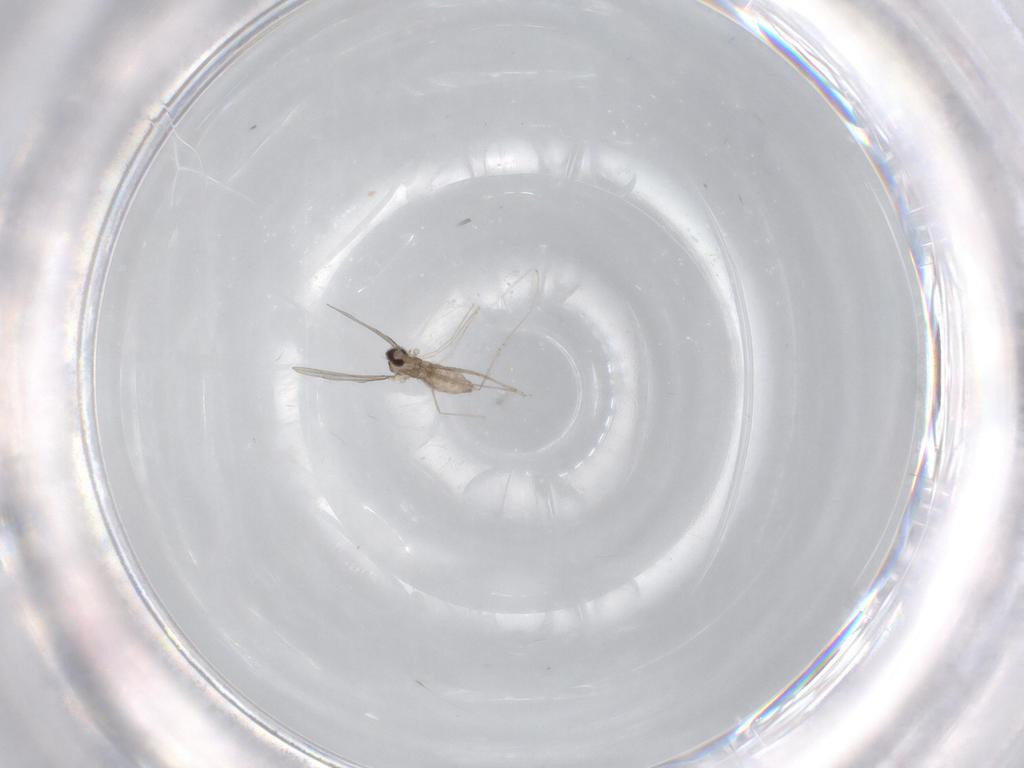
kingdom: Animalia
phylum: Arthropoda
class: Insecta
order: Diptera
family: Cecidomyiidae
